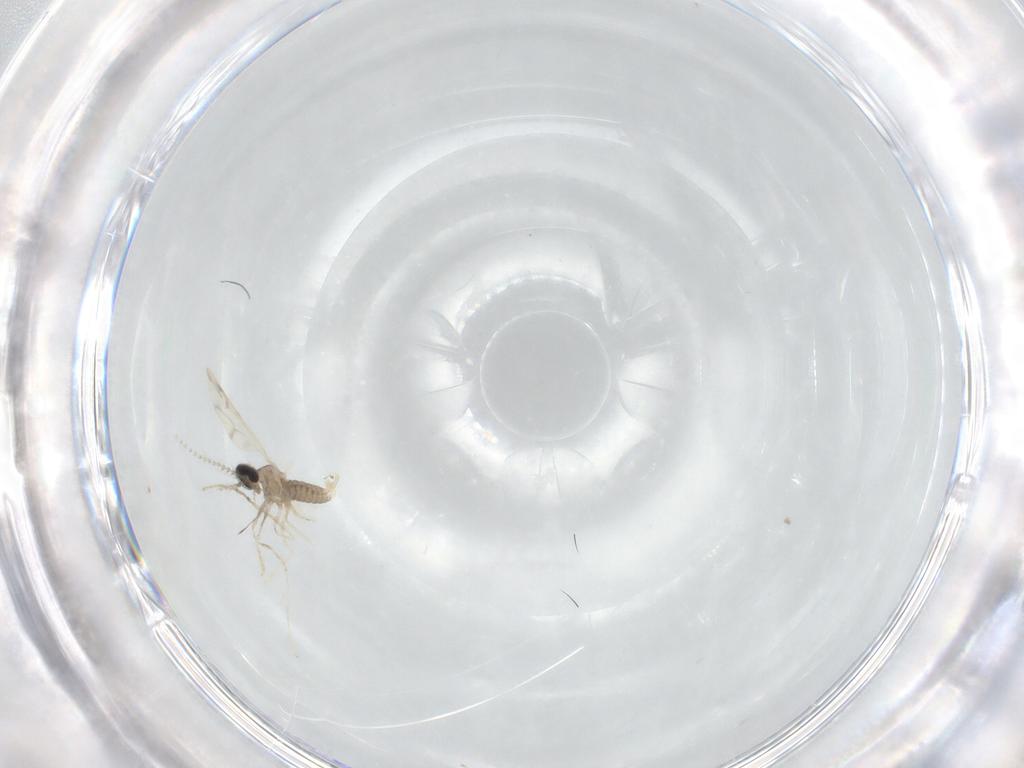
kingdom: Animalia
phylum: Arthropoda
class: Insecta
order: Diptera
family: Cecidomyiidae
